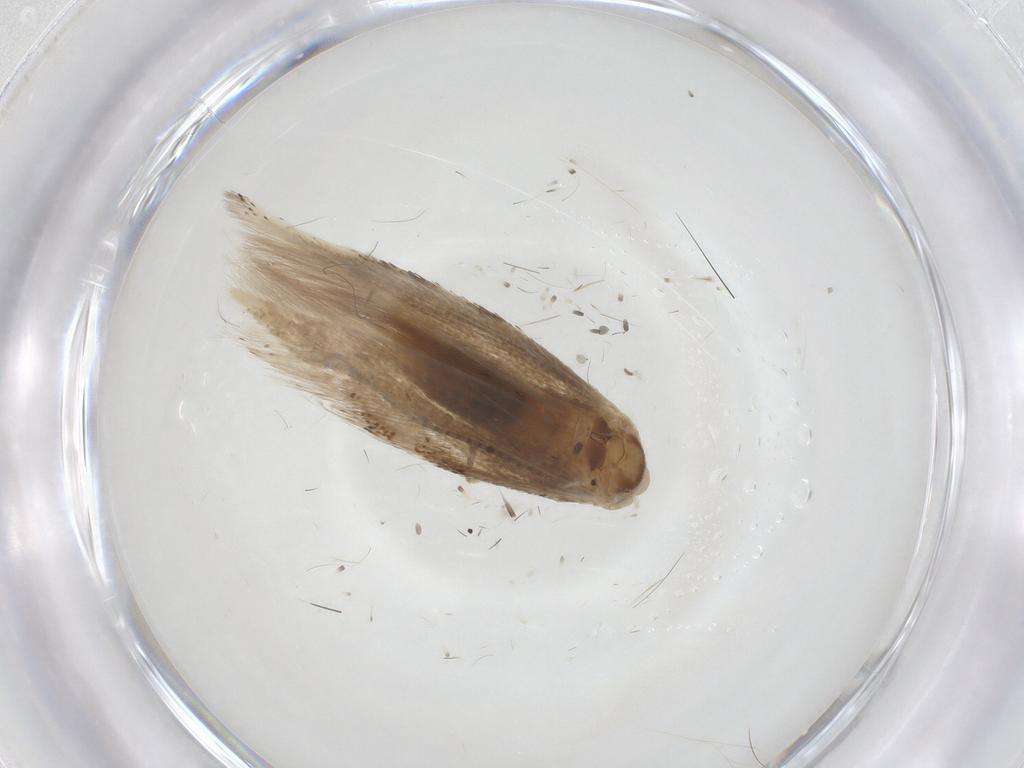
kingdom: Animalia
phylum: Arthropoda
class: Insecta
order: Lepidoptera
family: Bucculatricidae
